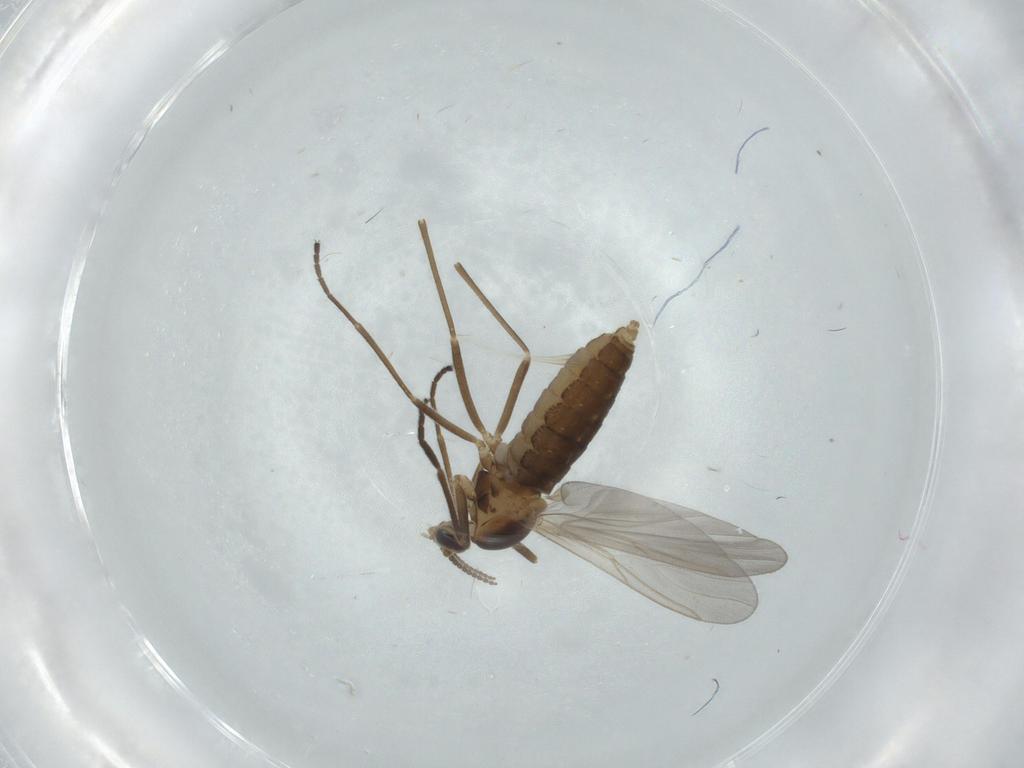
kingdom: Animalia
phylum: Arthropoda
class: Insecta
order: Diptera
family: Cecidomyiidae
